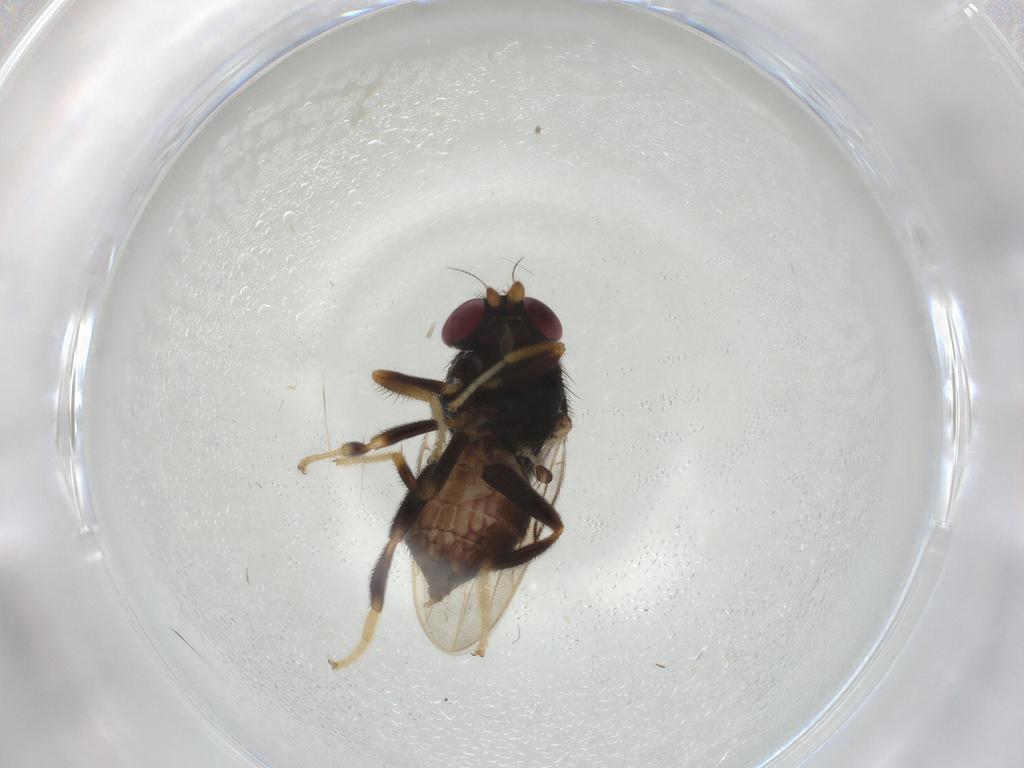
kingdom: Animalia
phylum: Arthropoda
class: Insecta
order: Diptera
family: Chloropidae
